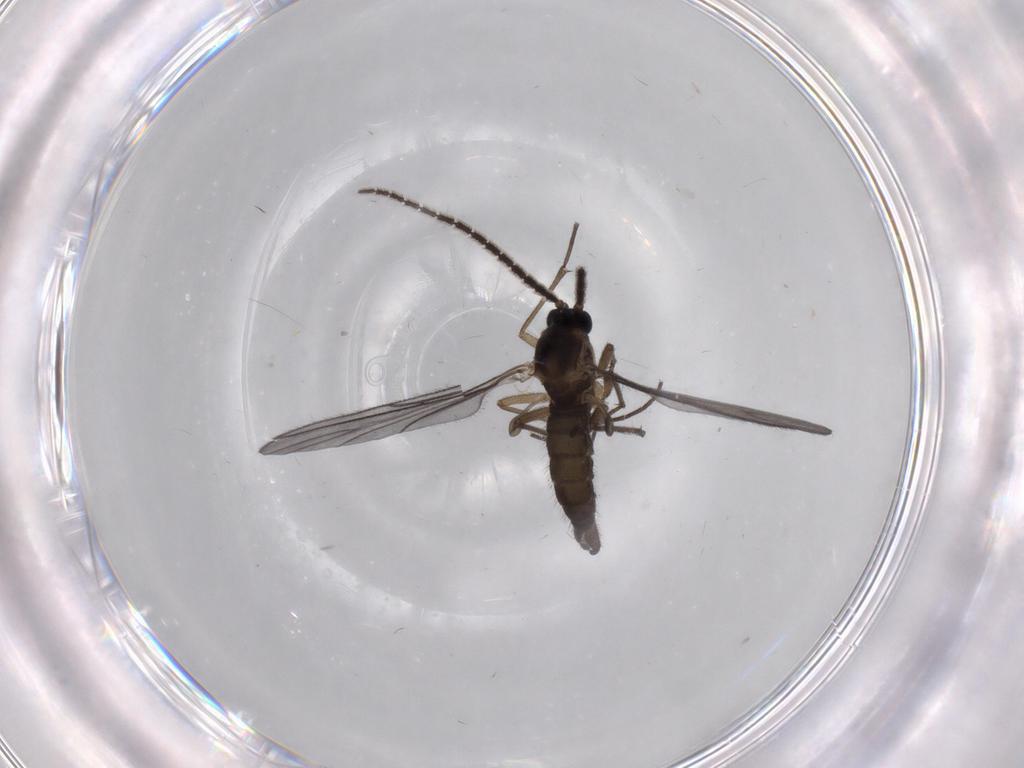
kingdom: Animalia
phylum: Arthropoda
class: Insecta
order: Diptera
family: Sciaridae
